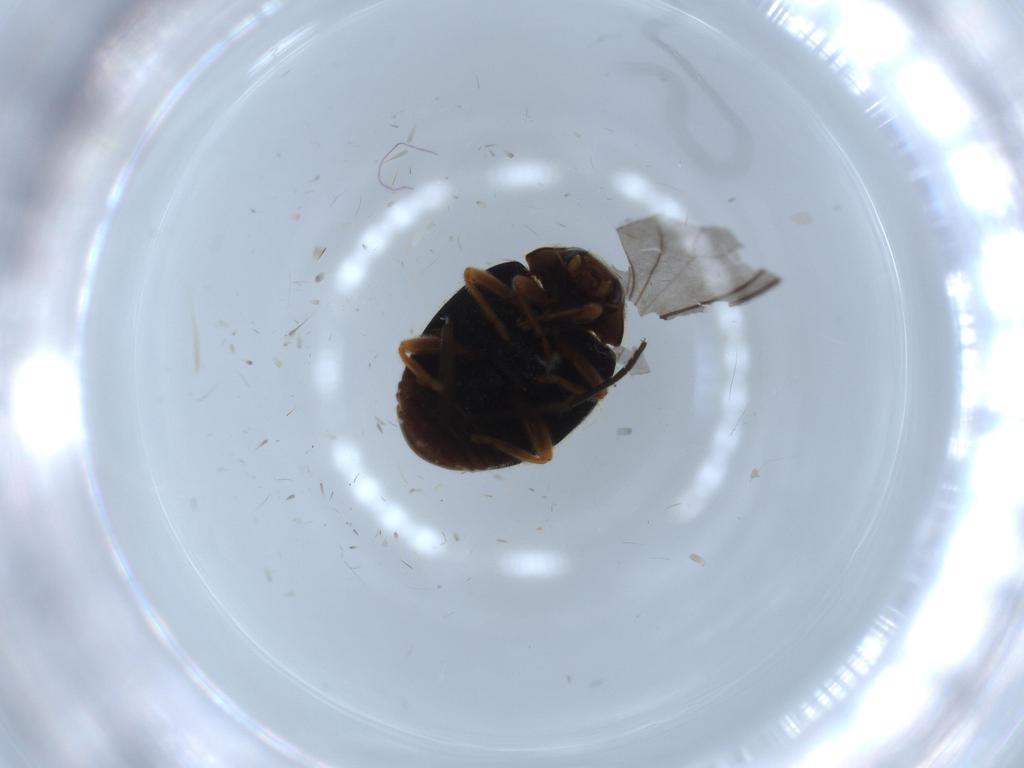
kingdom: Animalia
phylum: Arthropoda
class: Insecta
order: Coleoptera
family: Coccinellidae
